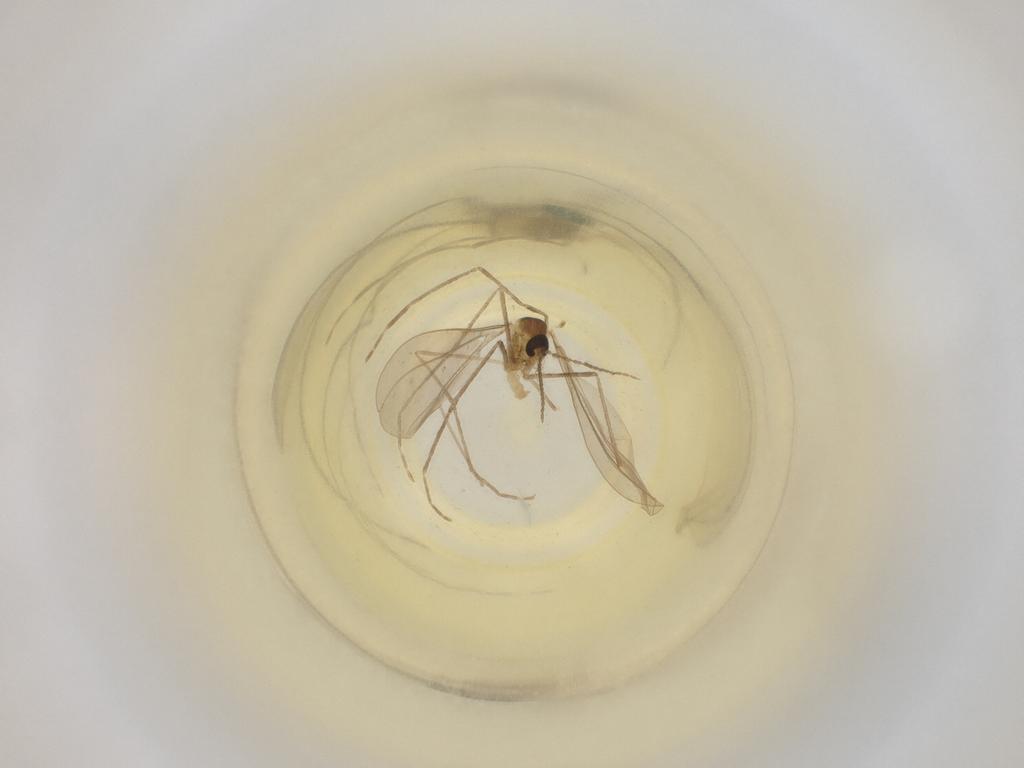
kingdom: Animalia
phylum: Arthropoda
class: Insecta
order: Diptera
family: Cecidomyiidae
